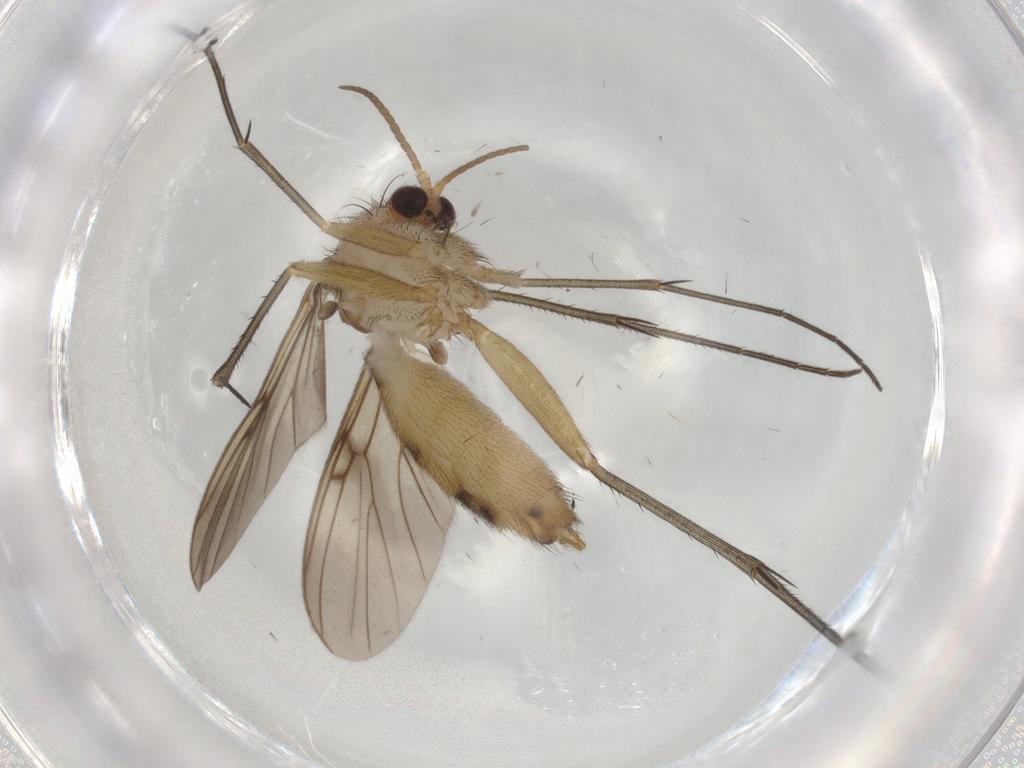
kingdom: Animalia
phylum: Arthropoda
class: Insecta
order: Diptera
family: Mycetophilidae
